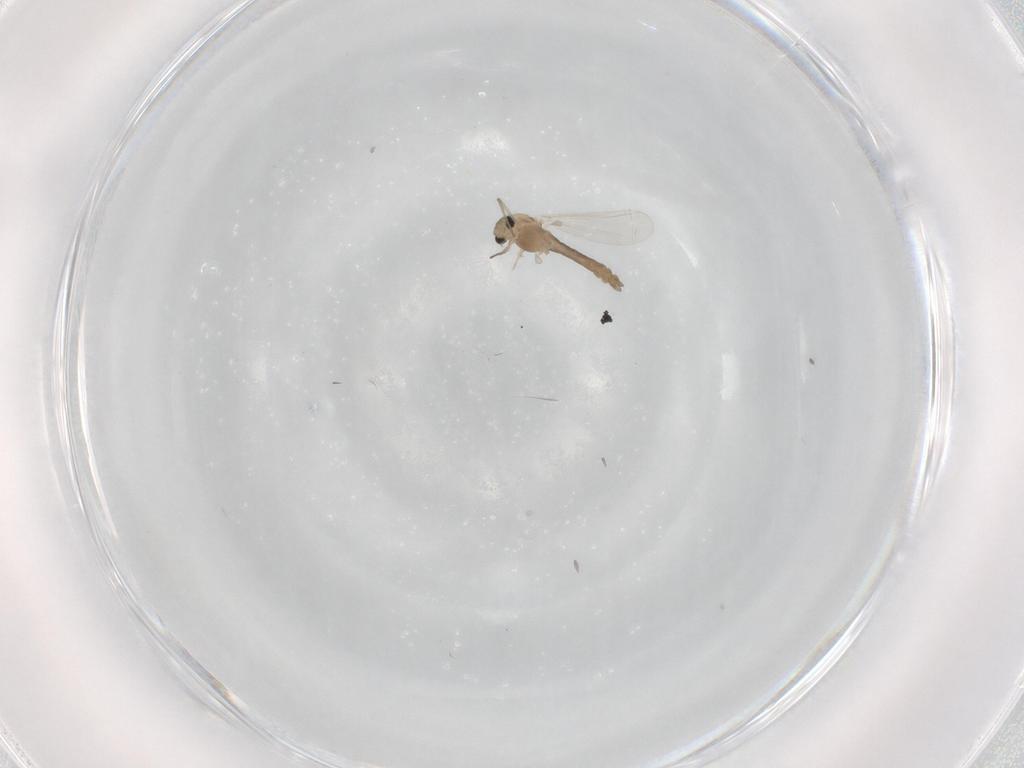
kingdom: Animalia
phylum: Arthropoda
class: Insecta
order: Diptera
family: Chironomidae
